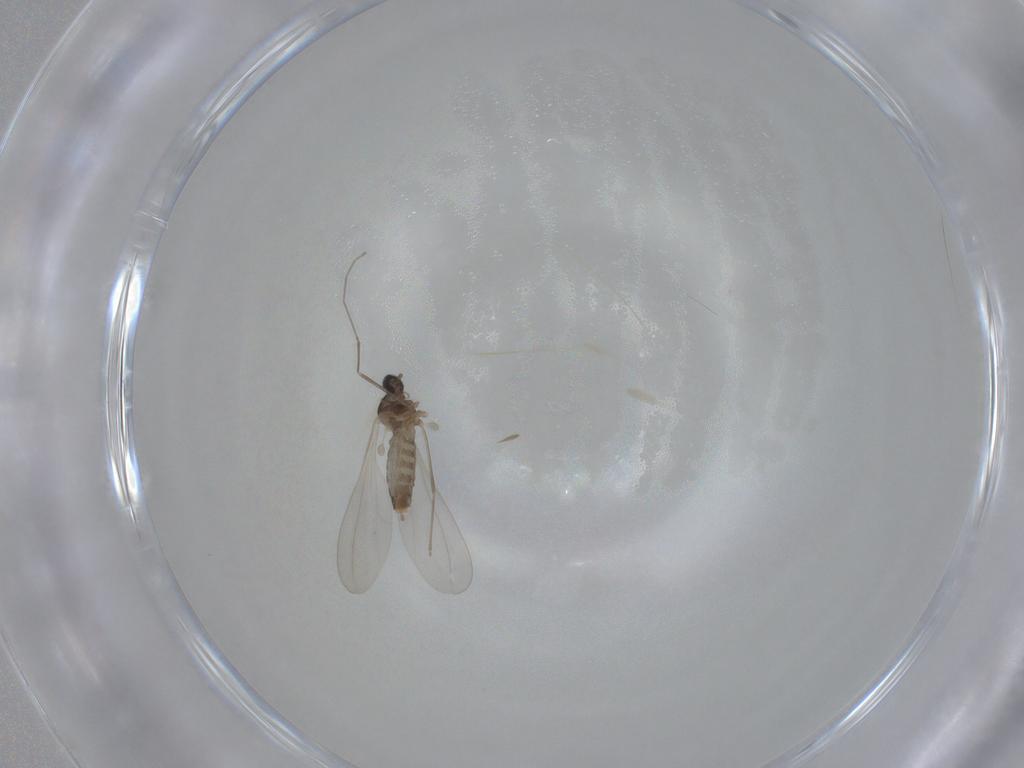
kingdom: Animalia
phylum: Arthropoda
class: Insecta
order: Diptera
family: Cecidomyiidae
